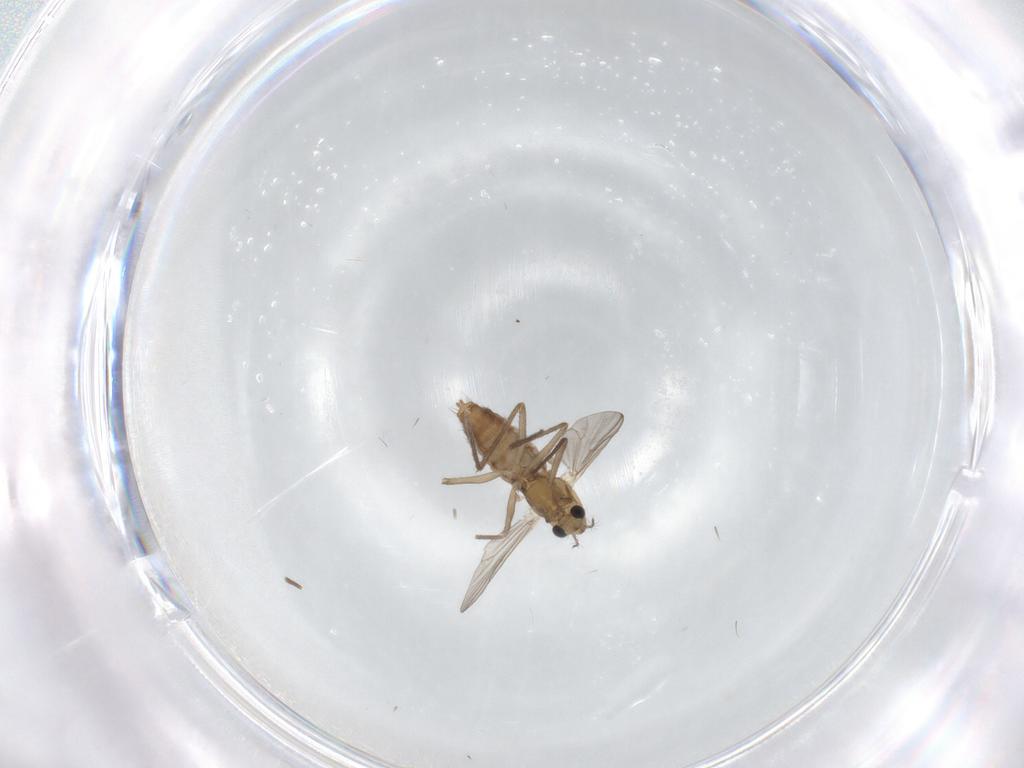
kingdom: Animalia
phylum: Arthropoda
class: Insecta
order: Diptera
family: Chironomidae
